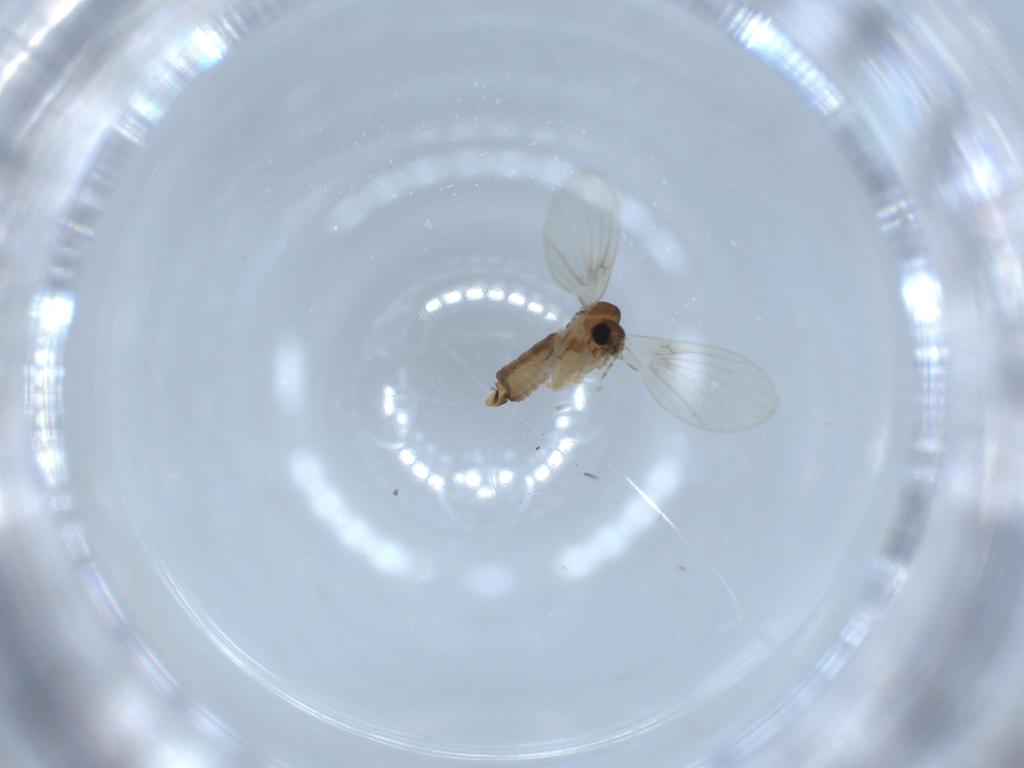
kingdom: Animalia
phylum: Arthropoda
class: Insecta
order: Diptera
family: Psychodidae
